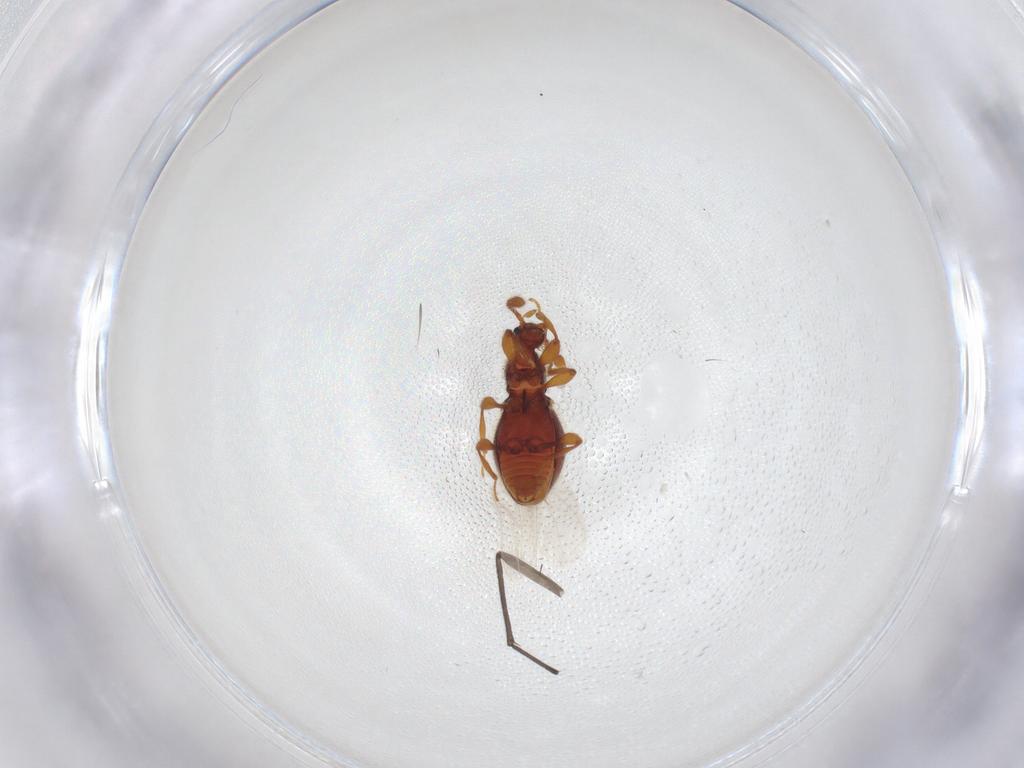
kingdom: Animalia
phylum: Arthropoda
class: Insecta
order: Coleoptera
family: Staphylinidae
